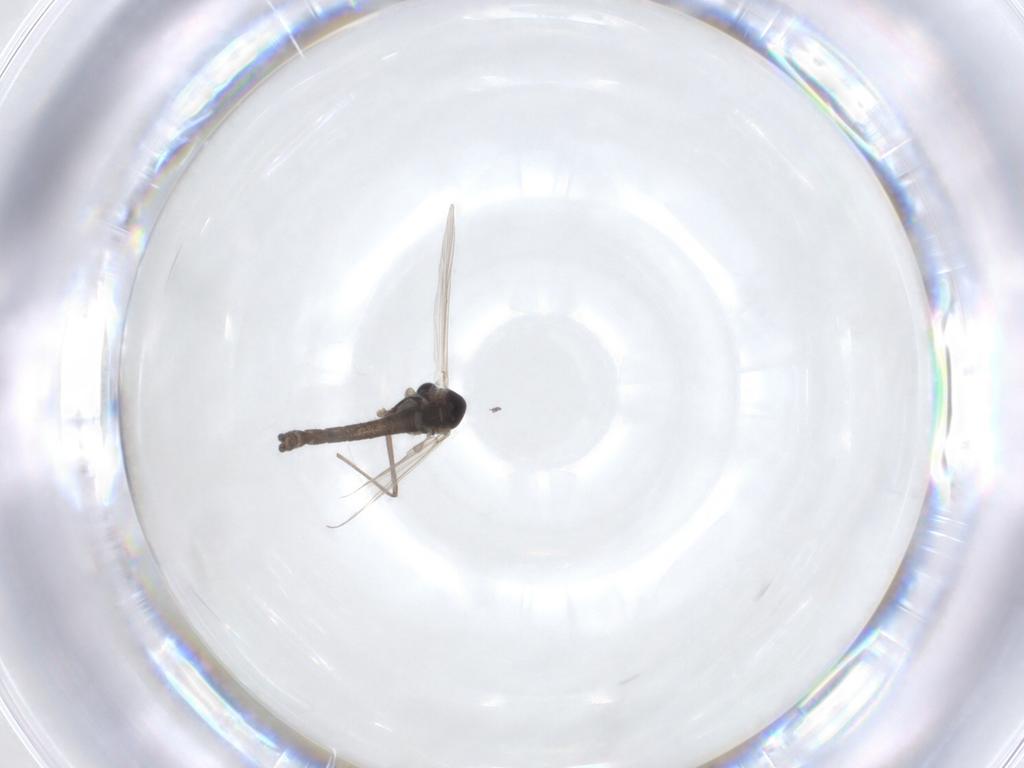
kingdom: Animalia
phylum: Arthropoda
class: Insecta
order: Diptera
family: Chironomidae
